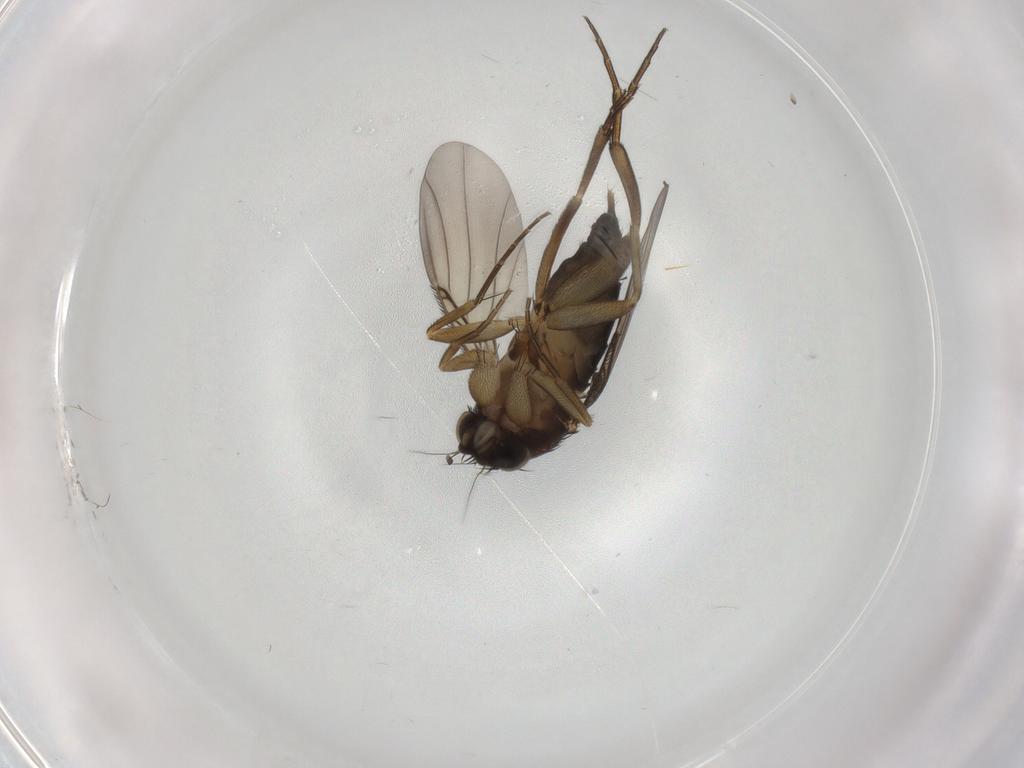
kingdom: Animalia
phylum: Arthropoda
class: Insecta
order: Diptera
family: Phoridae
